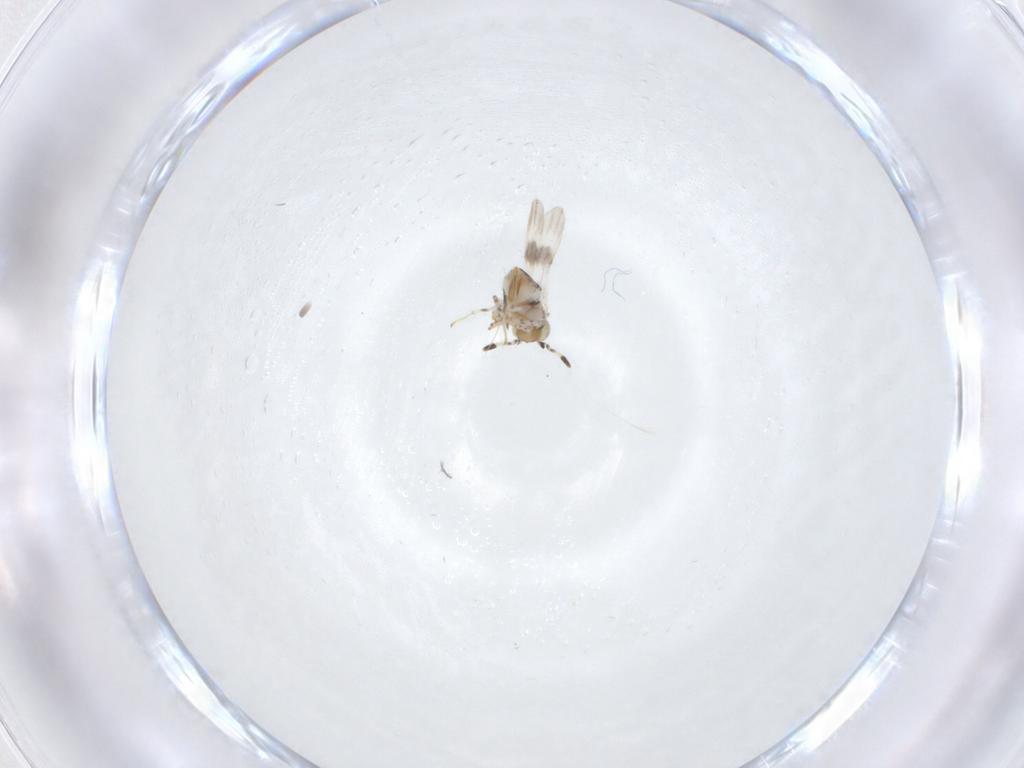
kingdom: Animalia
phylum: Arthropoda
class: Insecta
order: Hymenoptera
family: Encyrtidae
